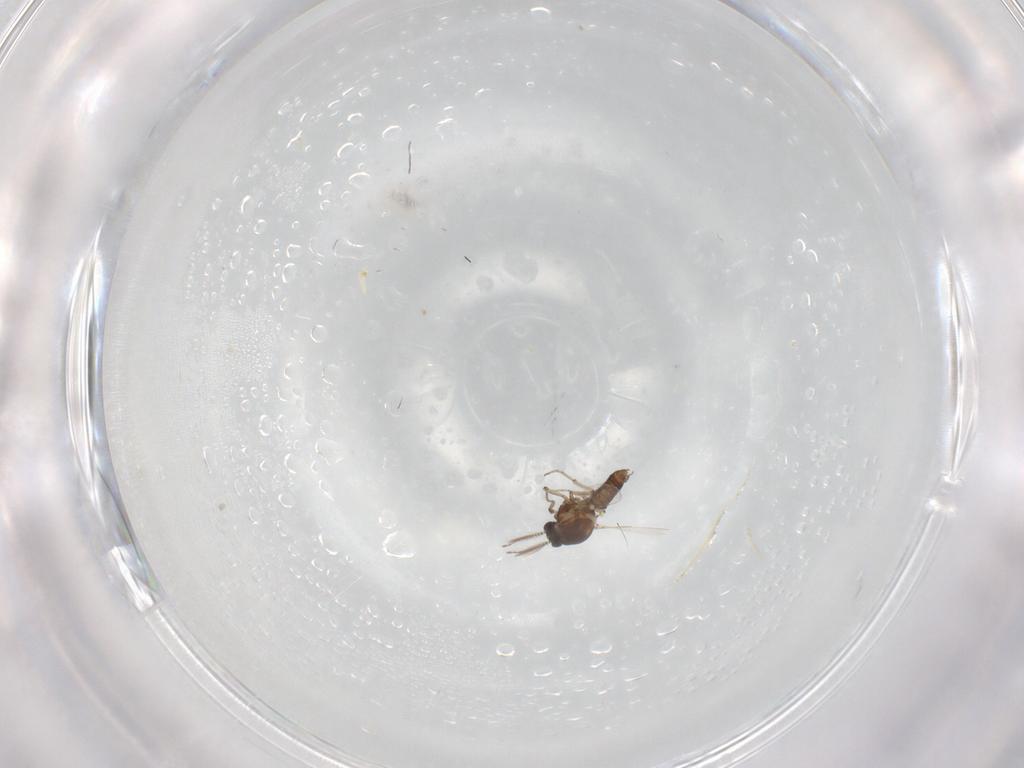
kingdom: Animalia
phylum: Arthropoda
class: Insecta
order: Diptera
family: Ceratopogonidae
